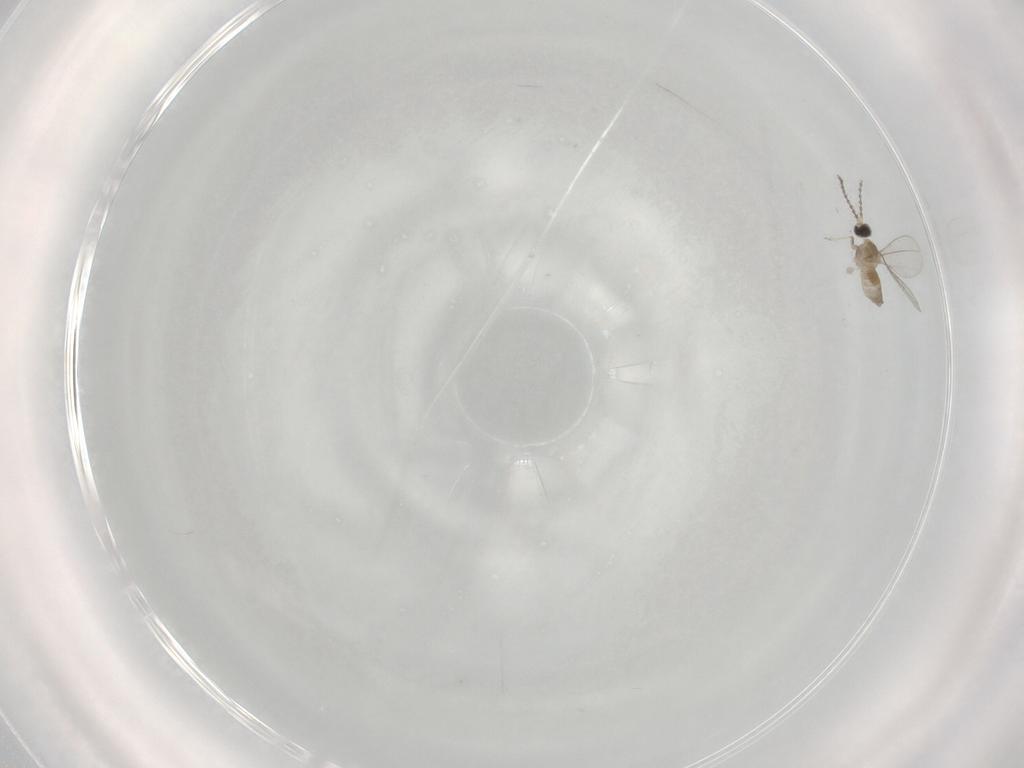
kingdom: Animalia
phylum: Arthropoda
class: Insecta
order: Diptera
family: Cecidomyiidae
